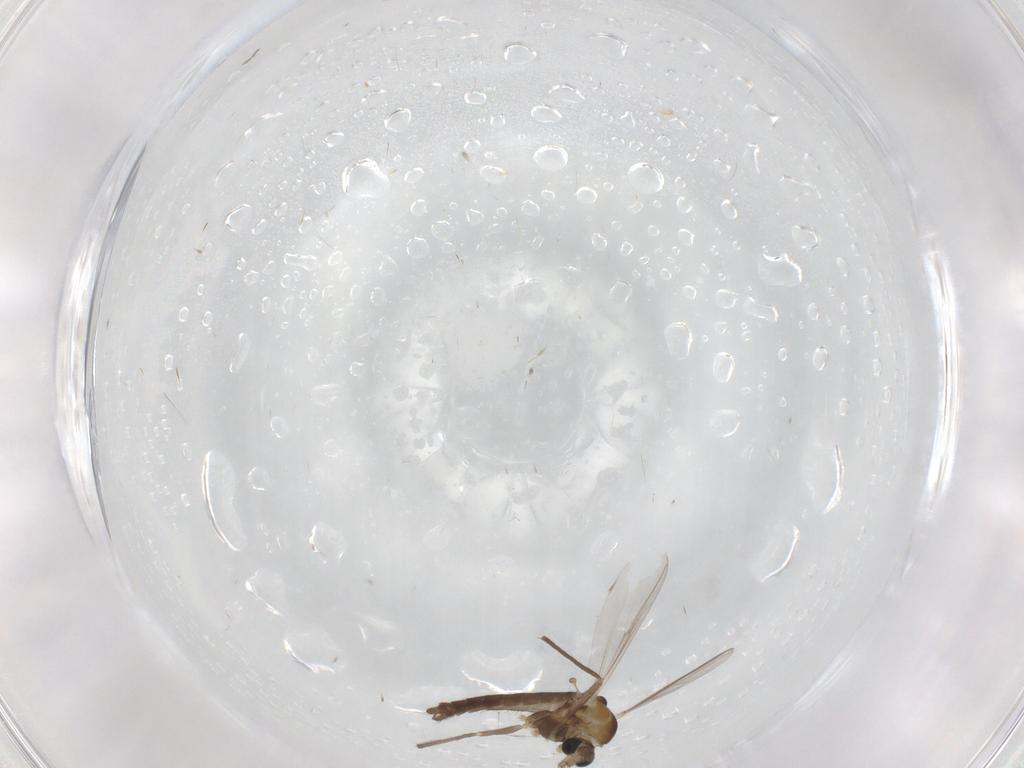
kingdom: Animalia
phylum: Arthropoda
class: Insecta
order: Diptera
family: Chironomidae
